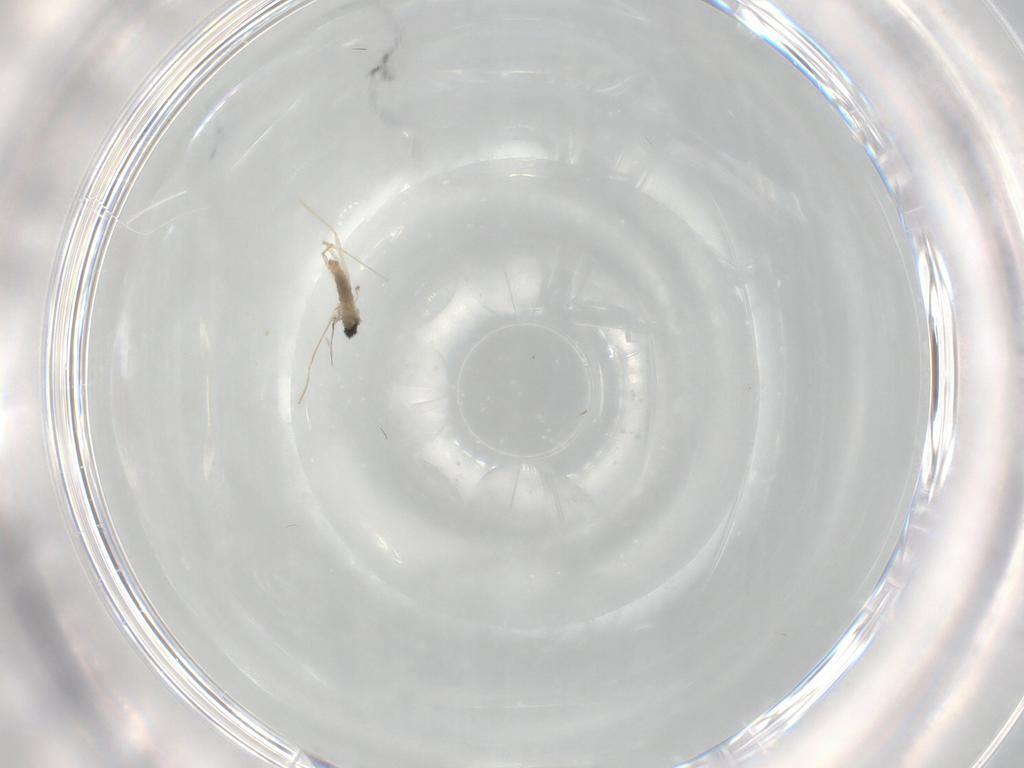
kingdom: Animalia
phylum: Arthropoda
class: Insecta
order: Diptera
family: Cecidomyiidae
